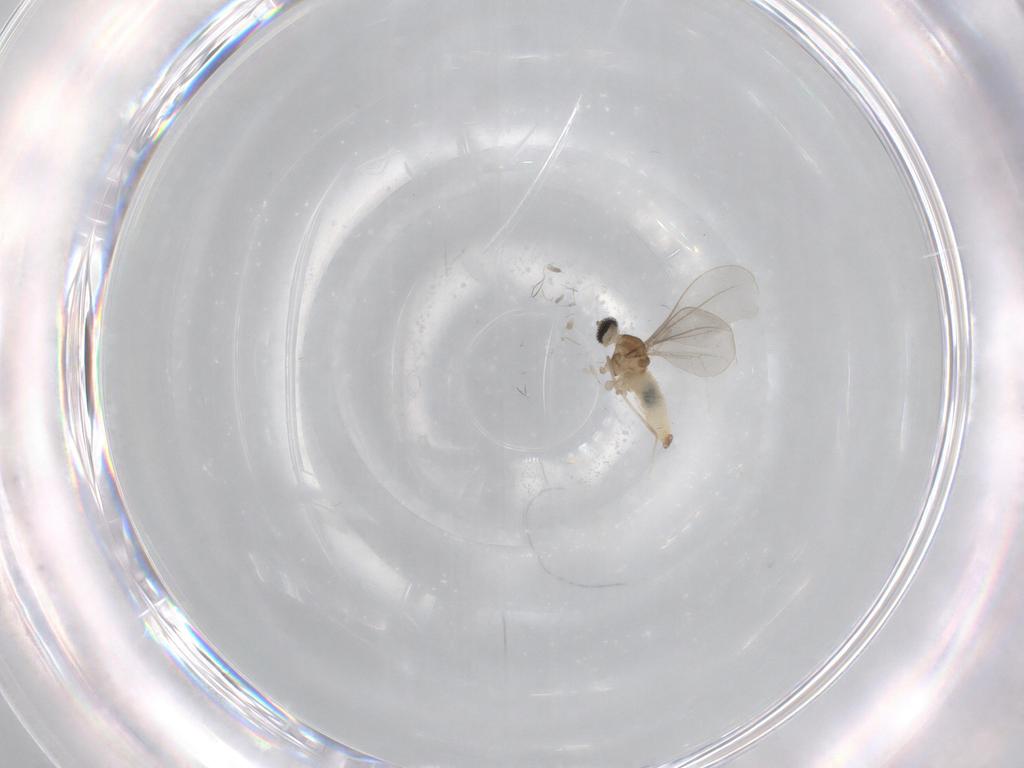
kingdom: Animalia
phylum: Arthropoda
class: Insecta
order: Diptera
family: Cecidomyiidae
